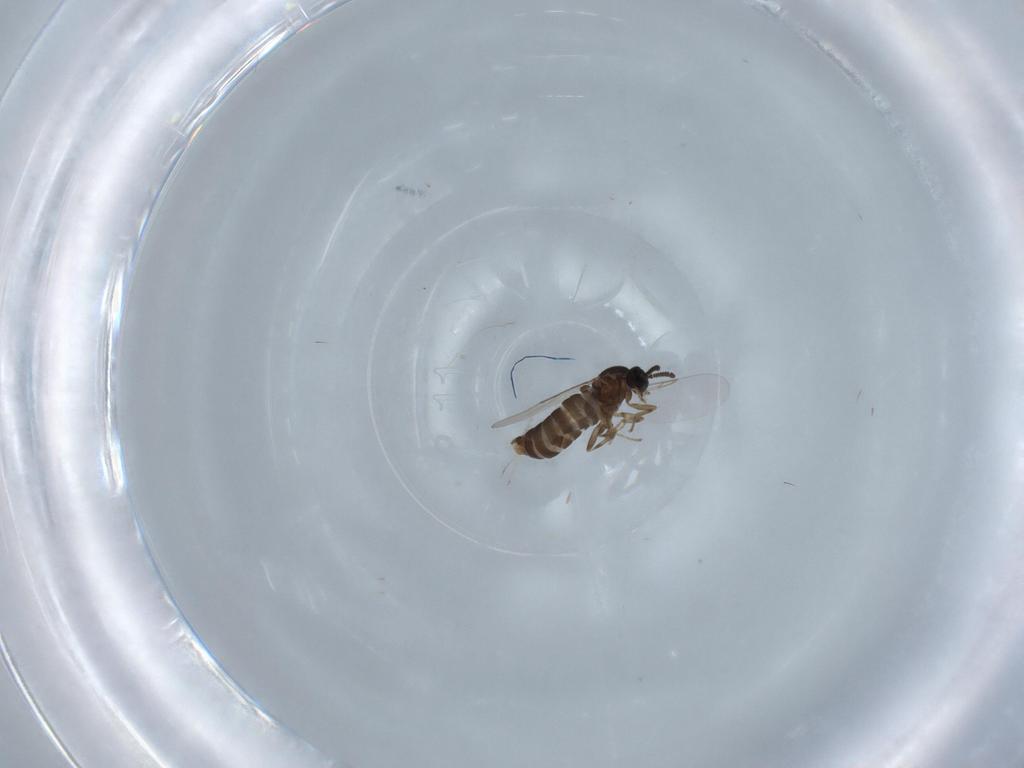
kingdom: Animalia
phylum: Arthropoda
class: Insecta
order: Diptera
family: Scatopsidae
